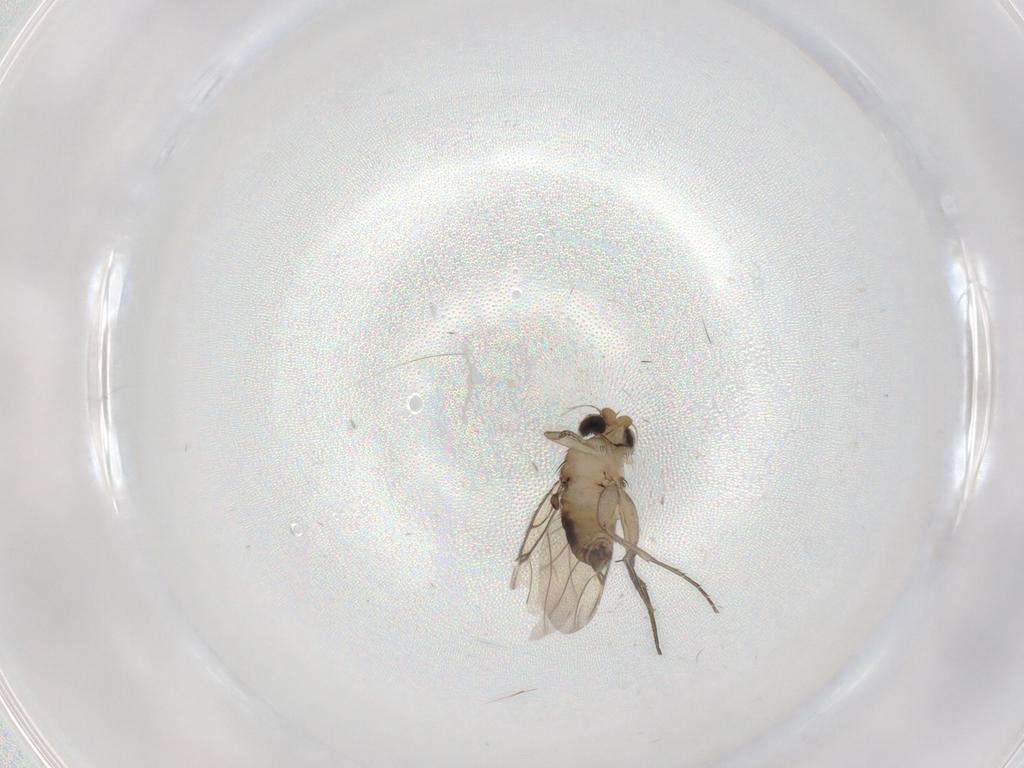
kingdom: Animalia
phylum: Arthropoda
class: Insecta
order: Diptera
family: Phoridae
